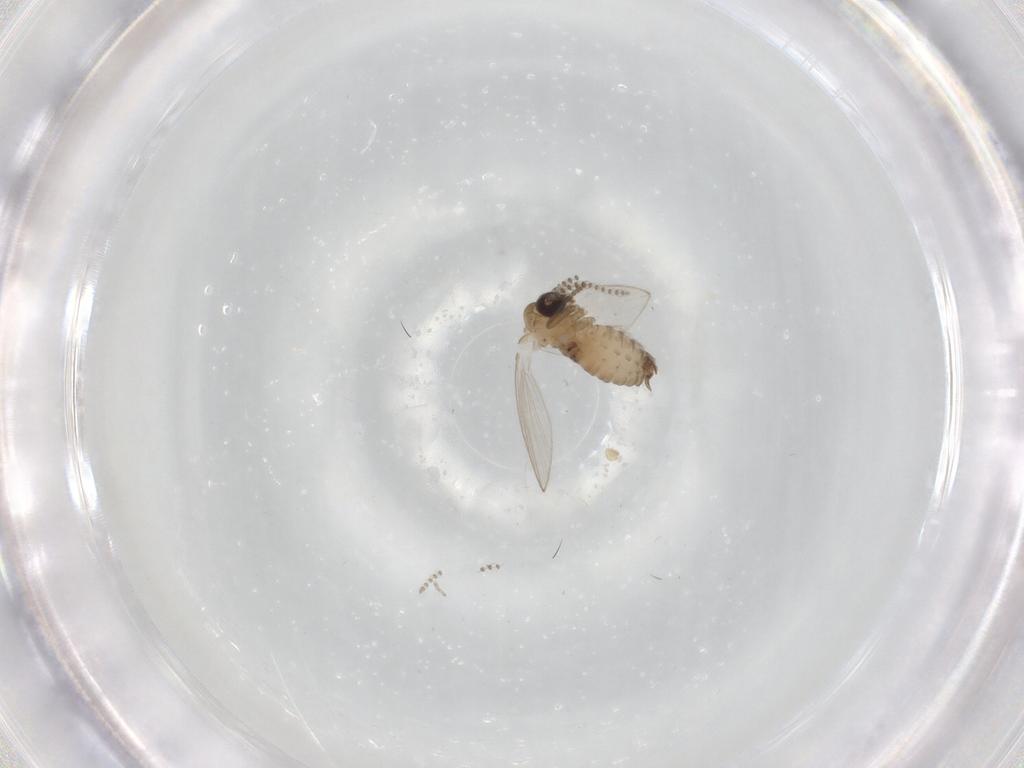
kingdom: Animalia
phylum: Arthropoda
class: Insecta
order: Diptera
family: Psychodidae
